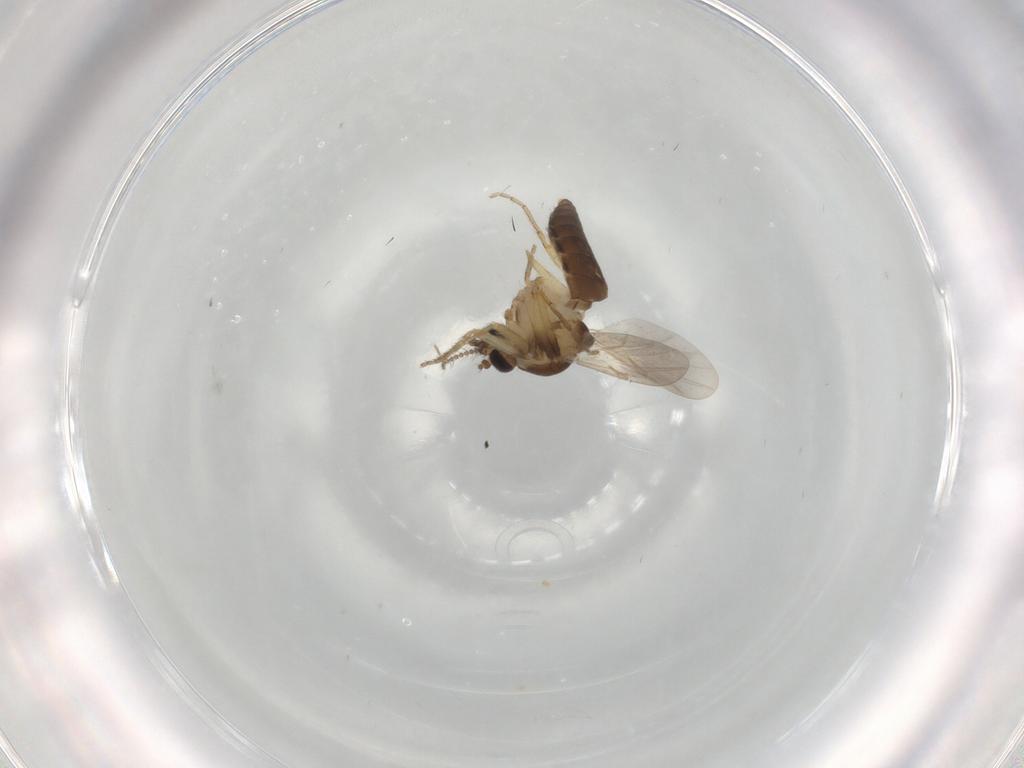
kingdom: Animalia
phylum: Arthropoda
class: Insecta
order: Diptera
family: Ceratopogonidae
